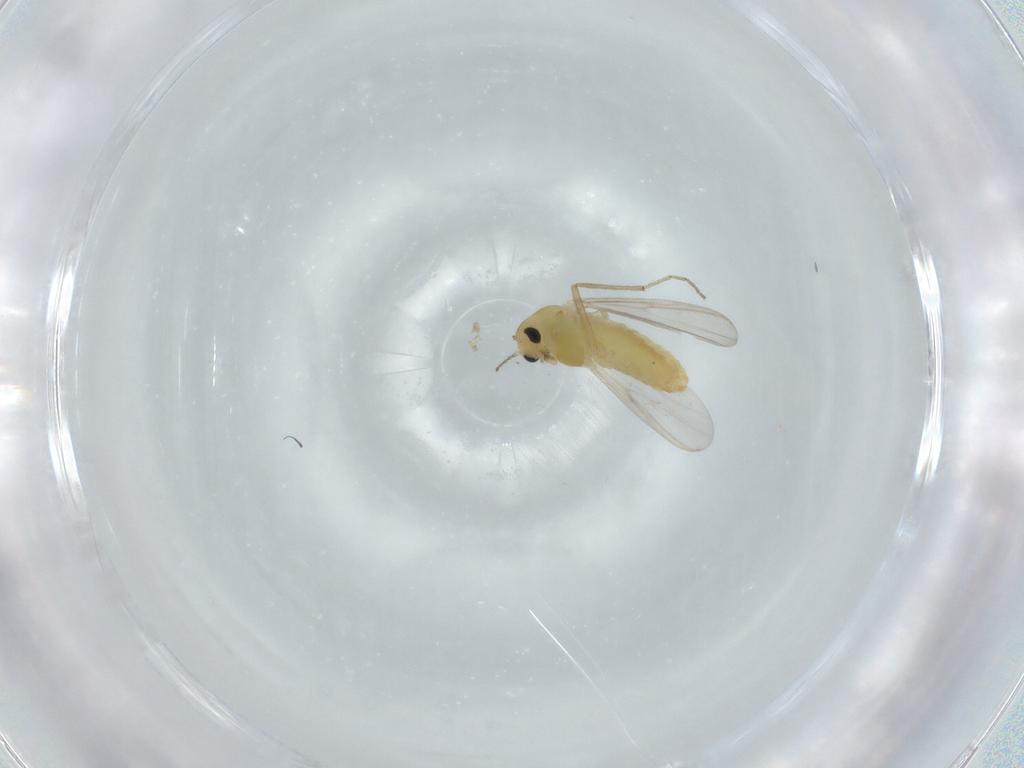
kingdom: Animalia
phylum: Arthropoda
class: Insecta
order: Diptera
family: Chironomidae
